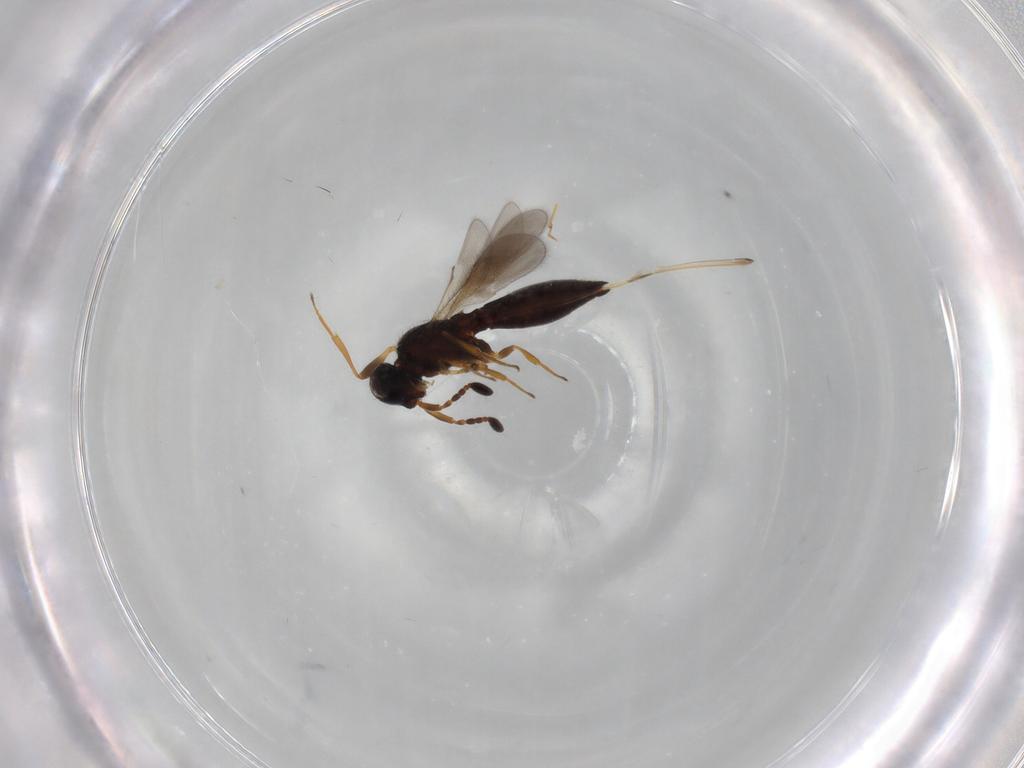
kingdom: Animalia
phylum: Arthropoda
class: Insecta
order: Hymenoptera
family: Scelionidae
